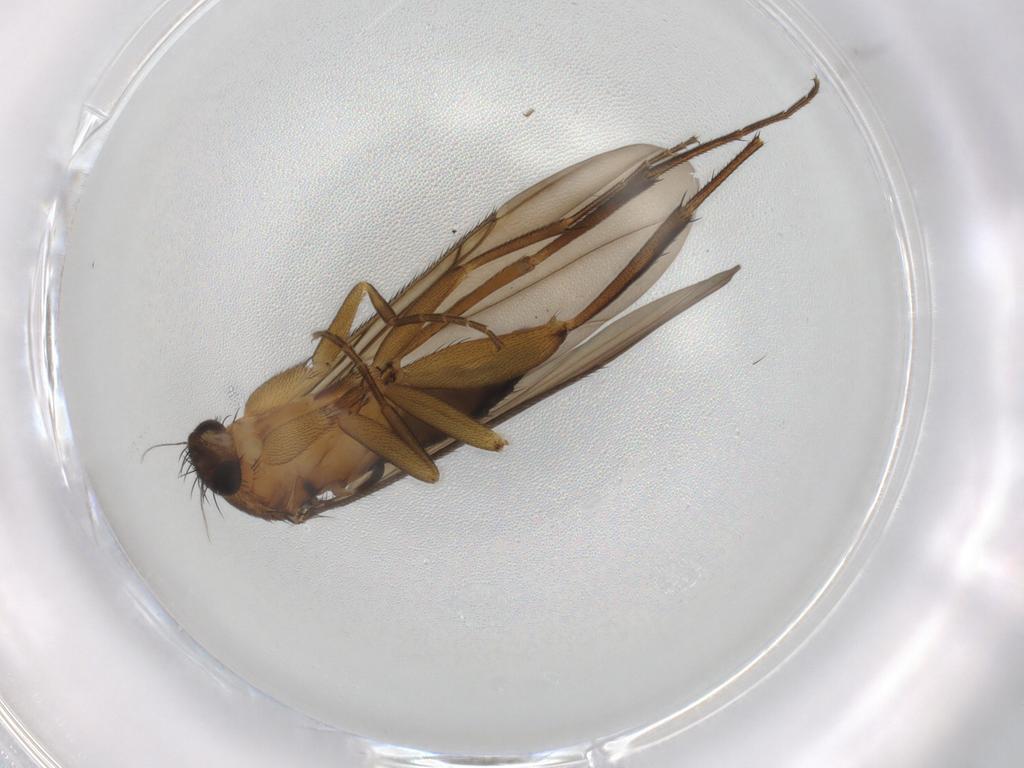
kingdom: Animalia
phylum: Arthropoda
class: Insecta
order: Diptera
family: Phoridae
